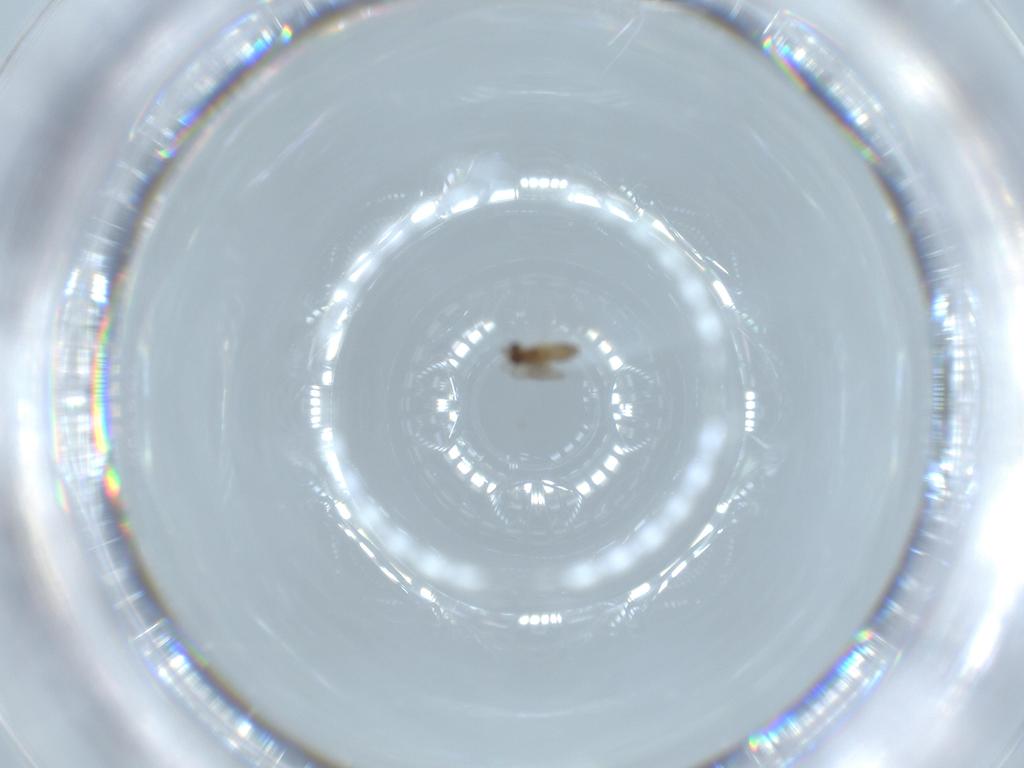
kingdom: Animalia
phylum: Arthropoda
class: Insecta
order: Diptera
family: Cecidomyiidae
